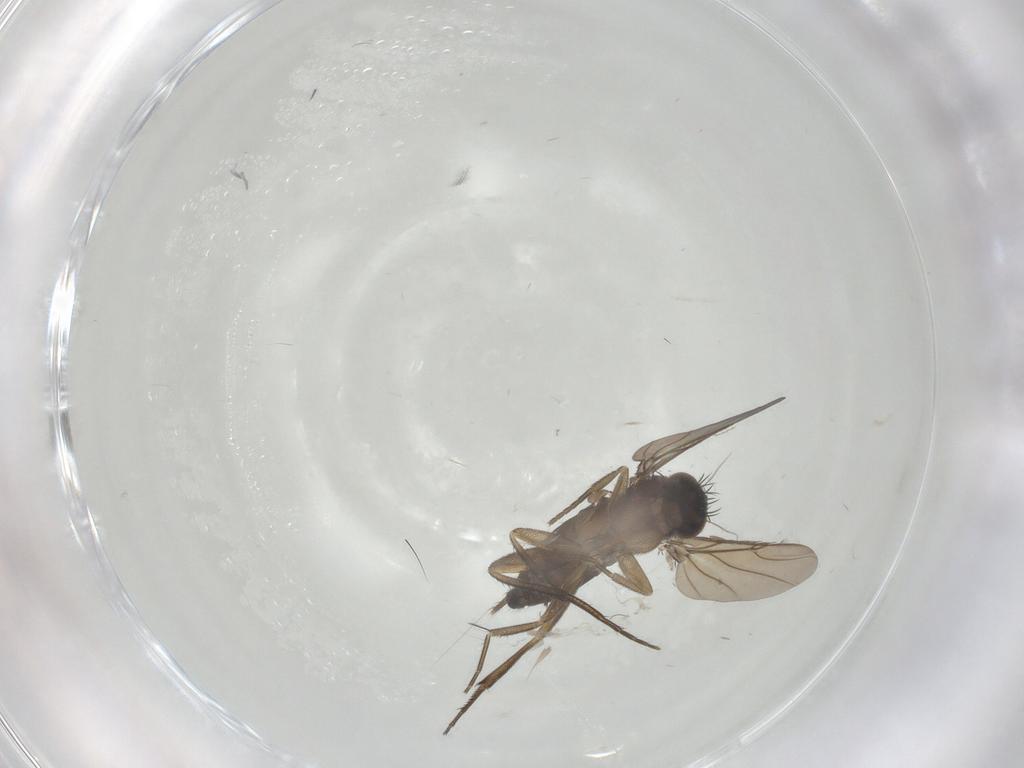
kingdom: Animalia
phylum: Arthropoda
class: Insecta
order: Diptera
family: Phoridae
